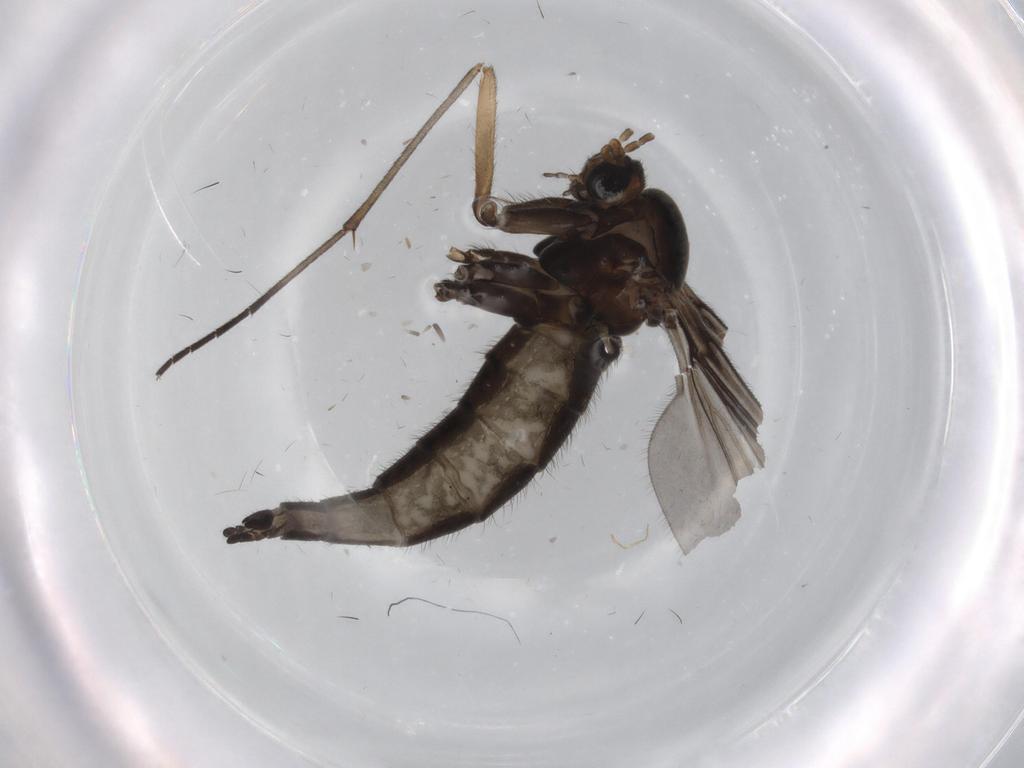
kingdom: Animalia
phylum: Arthropoda
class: Insecta
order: Diptera
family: Sciaridae
